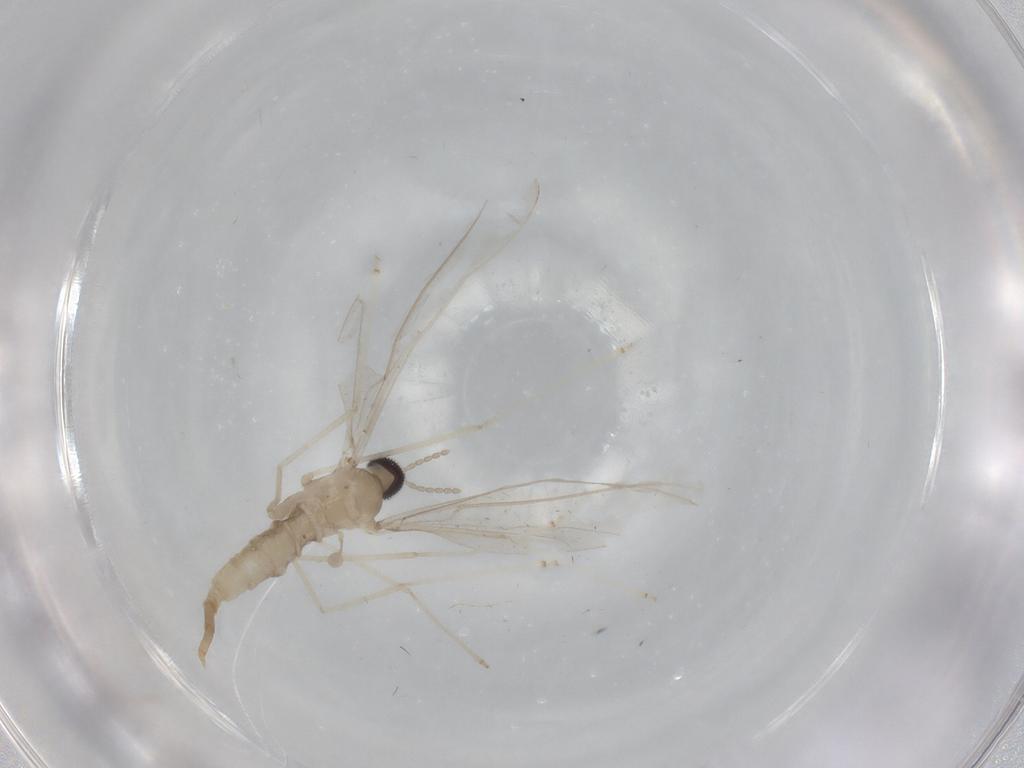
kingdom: Animalia
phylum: Arthropoda
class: Insecta
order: Diptera
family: Cecidomyiidae
